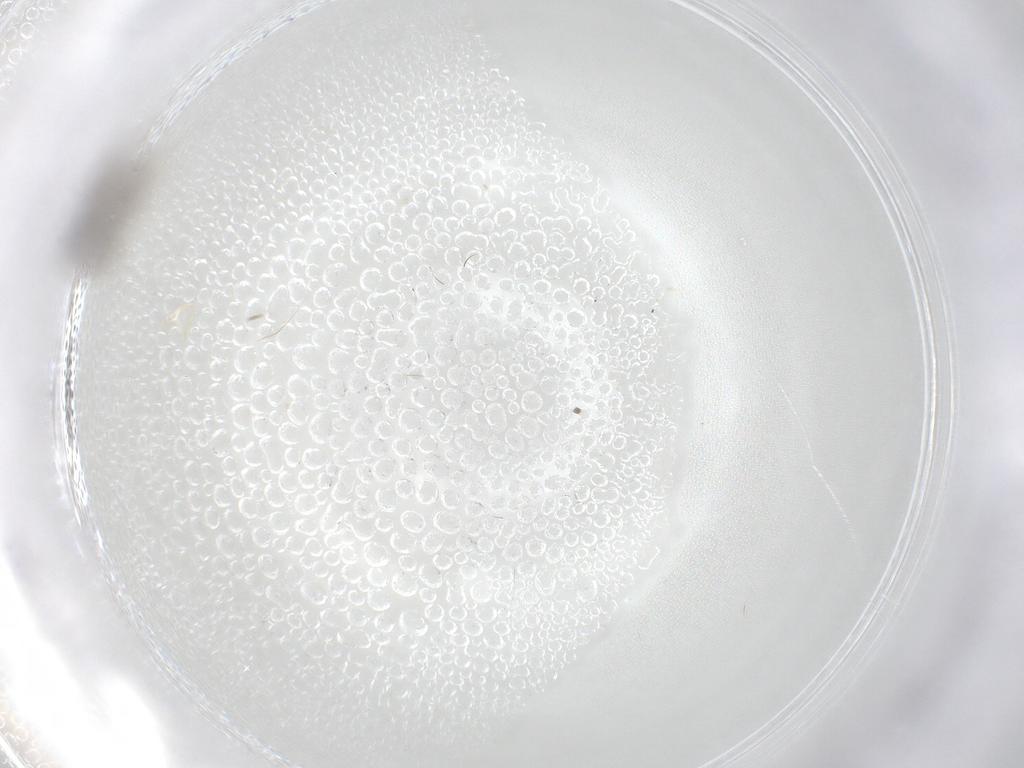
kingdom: Animalia
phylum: Arthropoda
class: Insecta
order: Diptera
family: Cecidomyiidae
